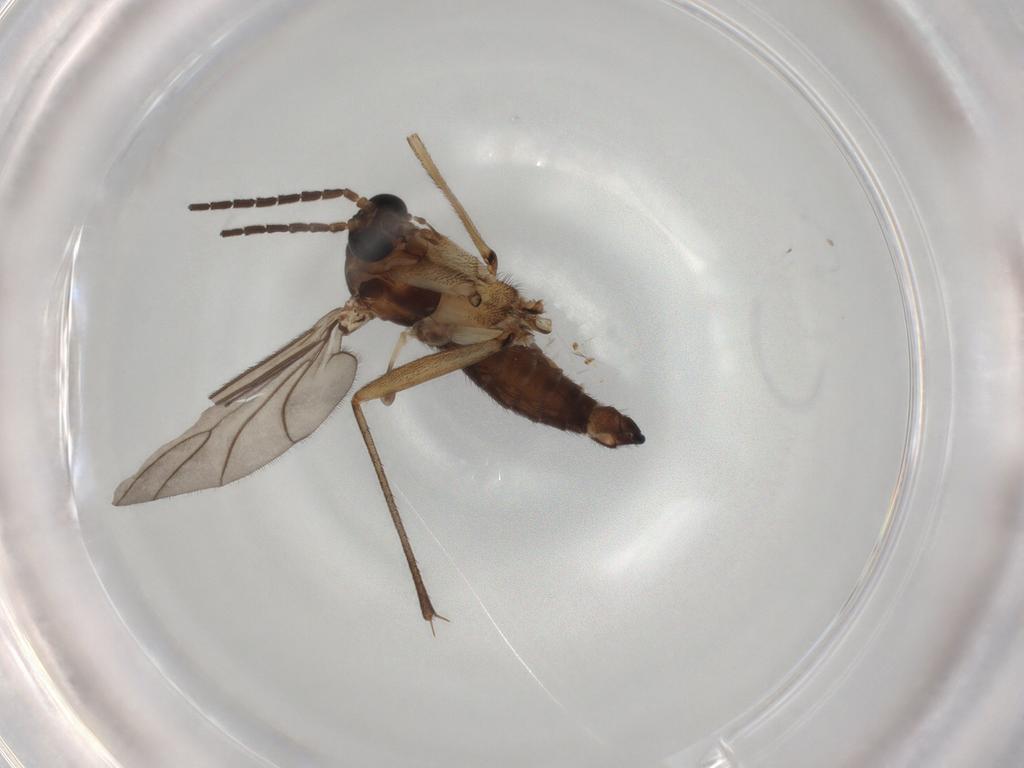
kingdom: Animalia
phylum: Arthropoda
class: Insecta
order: Diptera
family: Sciaridae
